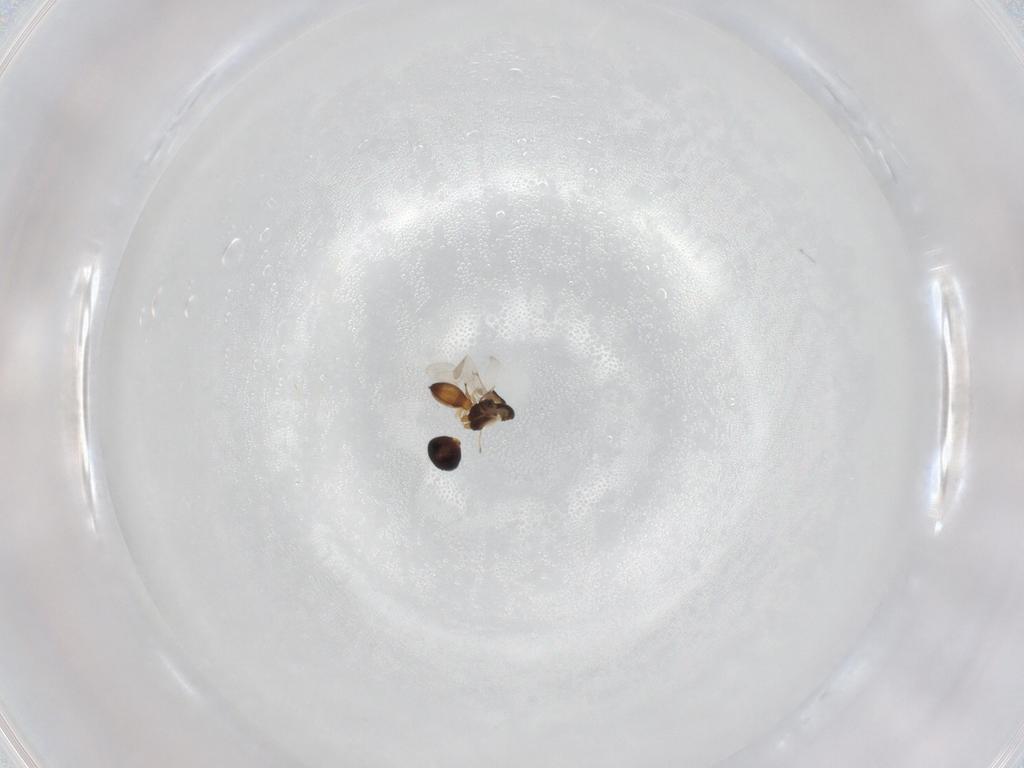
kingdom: Animalia
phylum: Arthropoda
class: Insecta
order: Hymenoptera
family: Scelionidae
